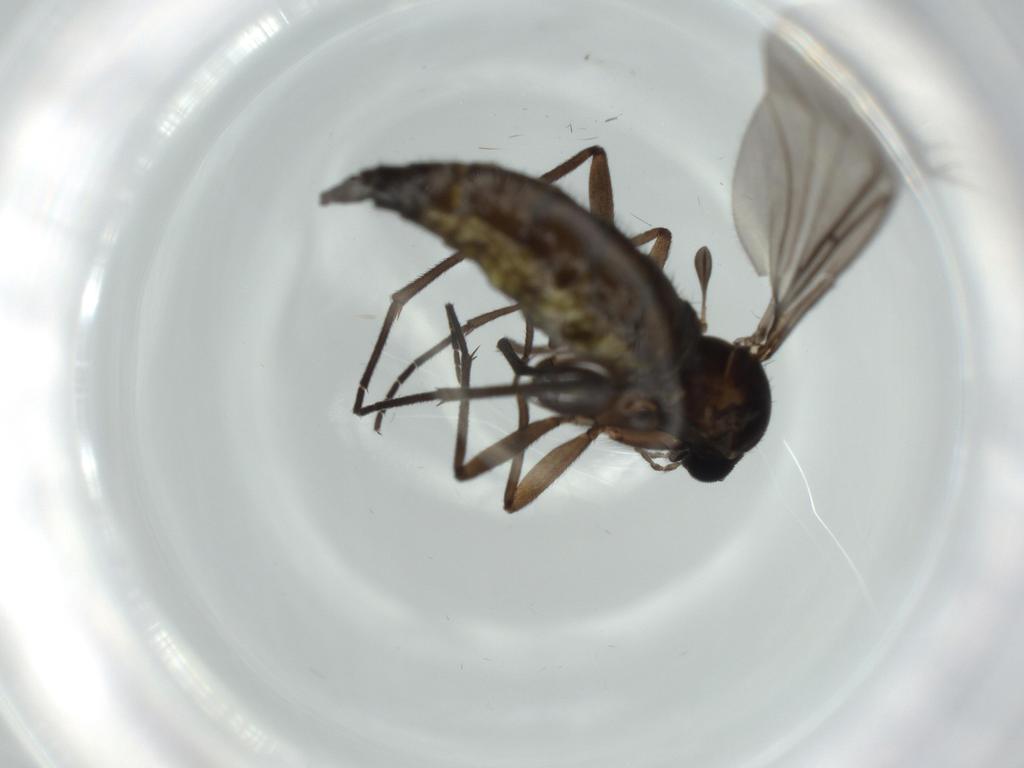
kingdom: Animalia
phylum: Arthropoda
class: Insecta
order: Diptera
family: Sciaridae
